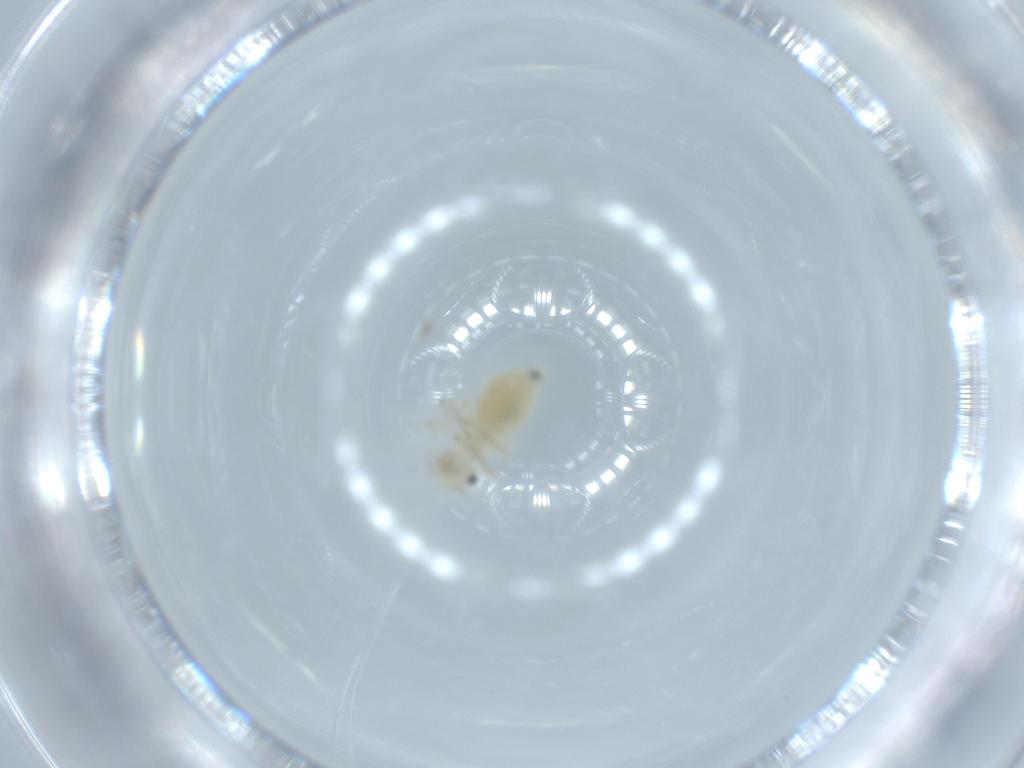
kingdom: Animalia
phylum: Arthropoda
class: Insecta
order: Psocodea
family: Caeciliusidae
